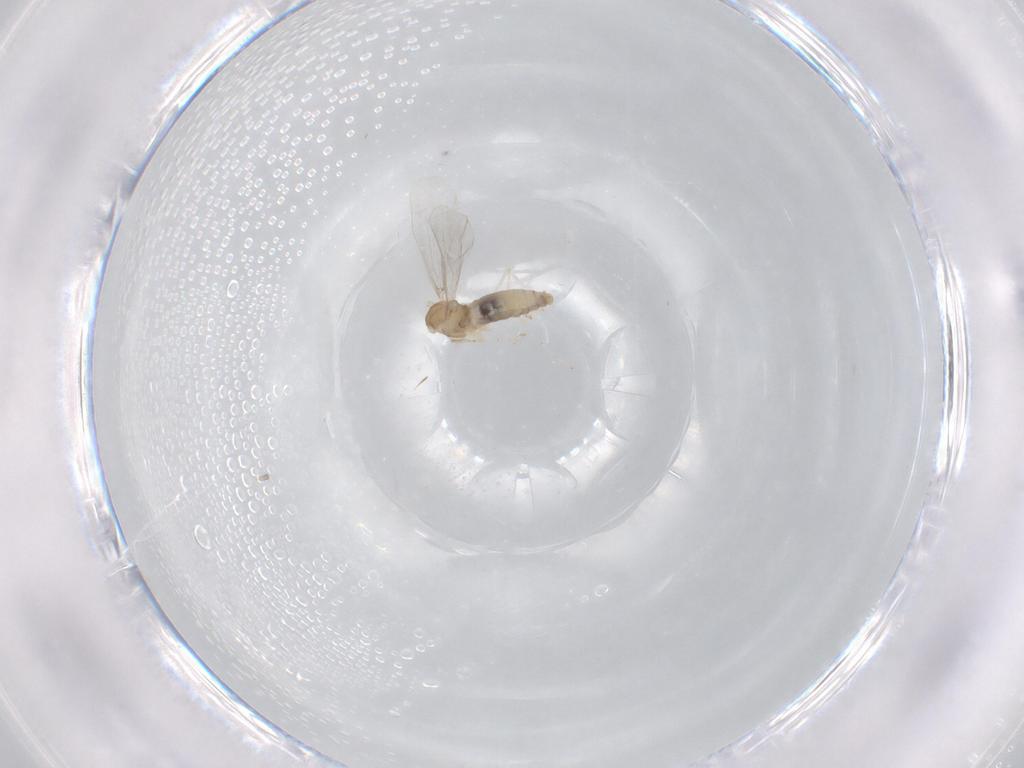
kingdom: Animalia
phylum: Arthropoda
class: Insecta
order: Diptera
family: Cecidomyiidae
